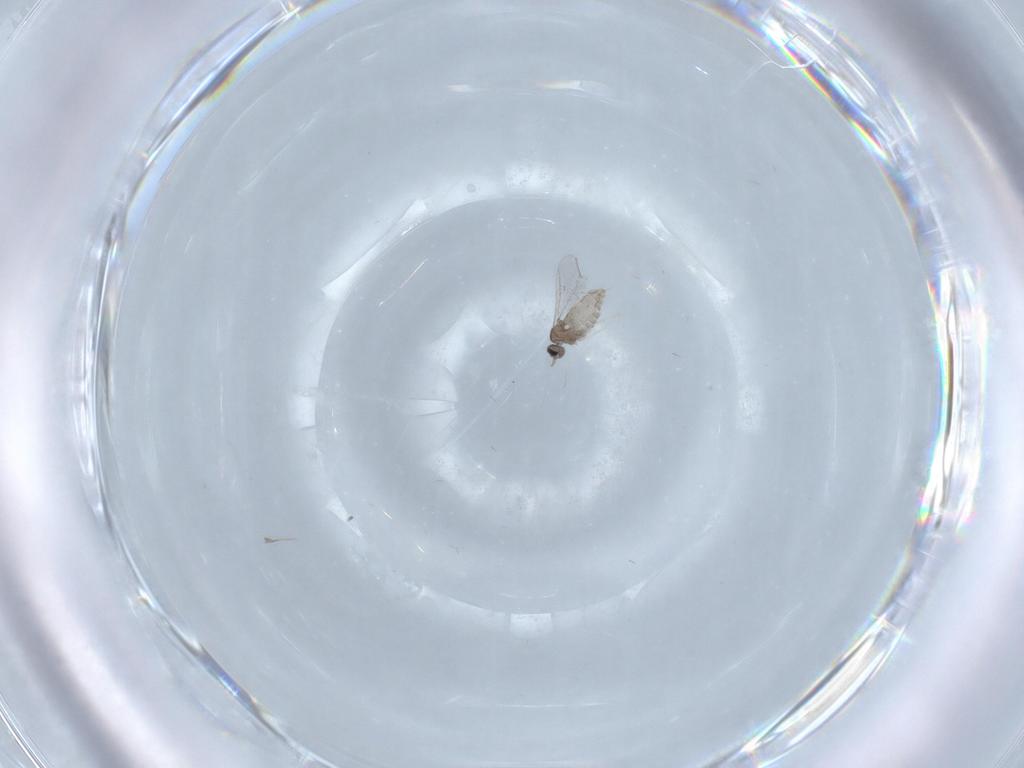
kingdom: Animalia
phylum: Arthropoda
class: Insecta
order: Diptera
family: Cecidomyiidae
